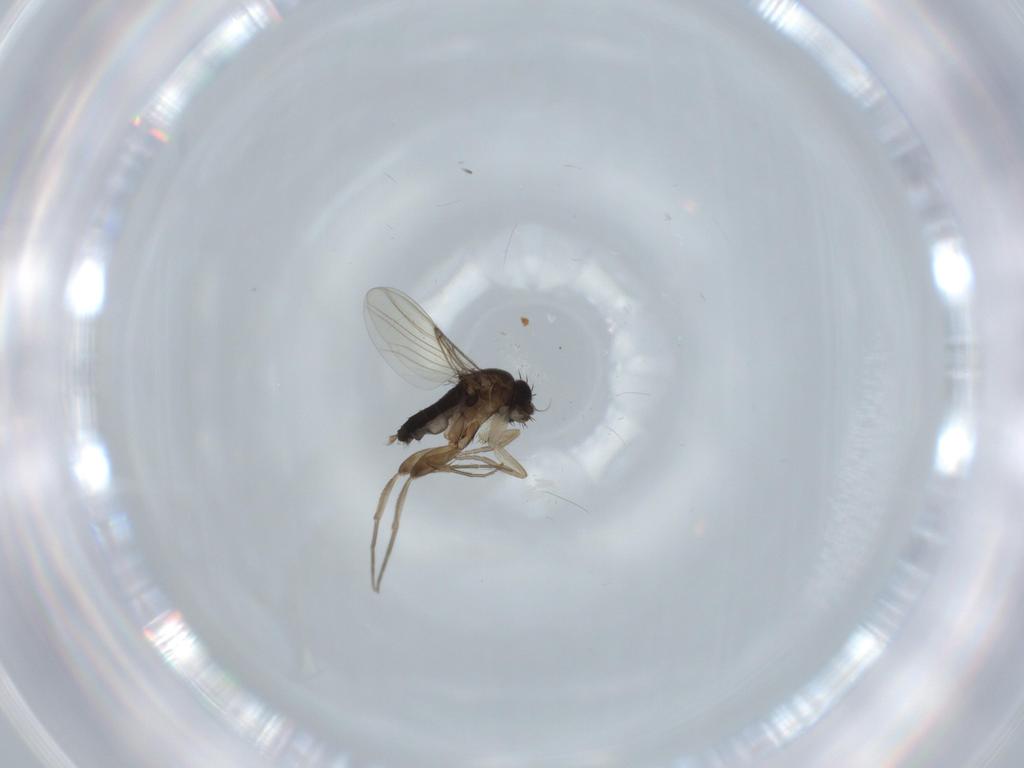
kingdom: Animalia
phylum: Arthropoda
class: Insecta
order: Diptera
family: Phoridae
